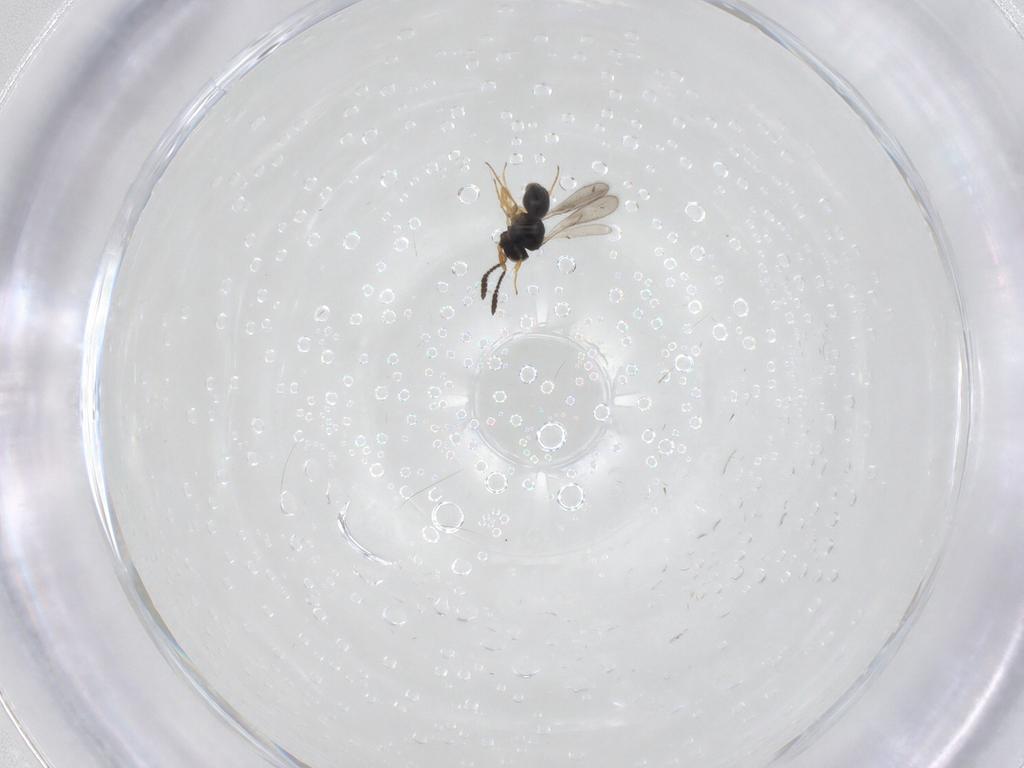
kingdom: Animalia
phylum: Arthropoda
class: Insecta
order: Hymenoptera
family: Scelionidae
